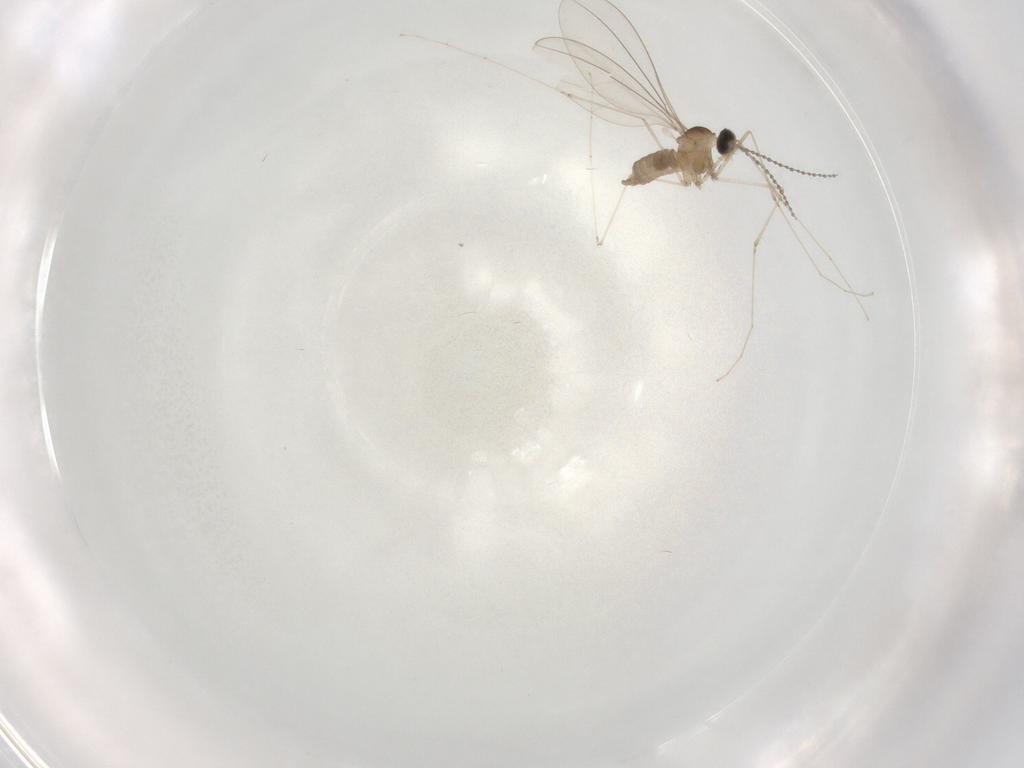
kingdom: Animalia
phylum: Arthropoda
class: Insecta
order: Diptera
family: Cecidomyiidae
